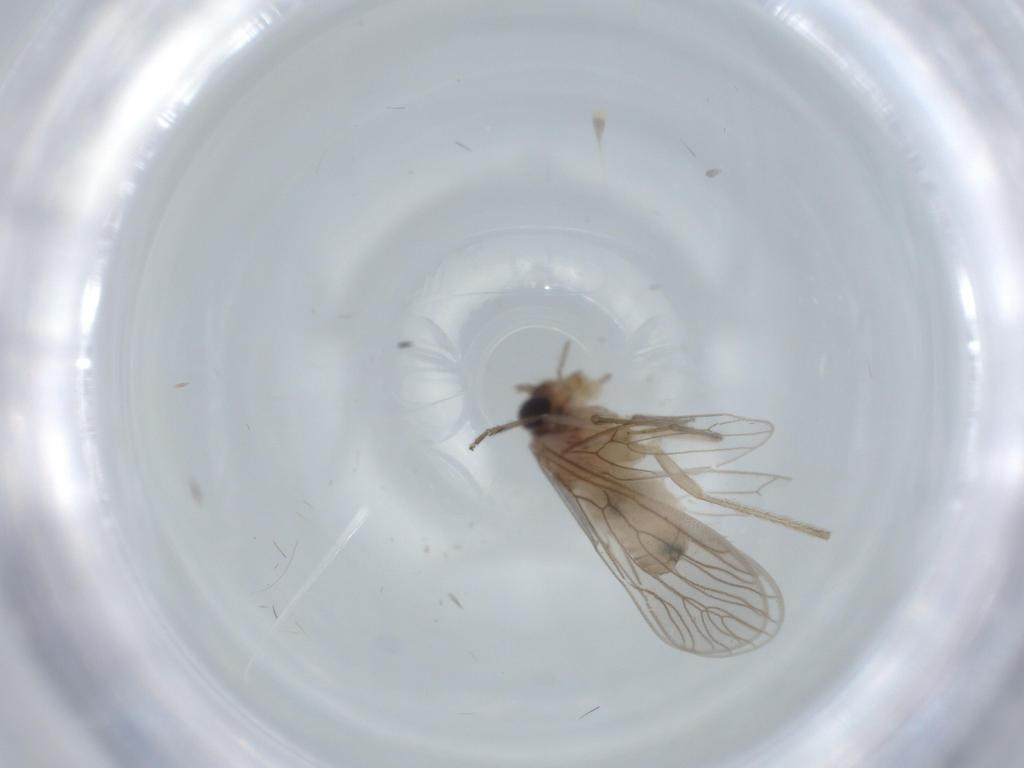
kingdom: Animalia
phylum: Arthropoda
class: Insecta
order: Psocodea
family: Cladiopsocidae
